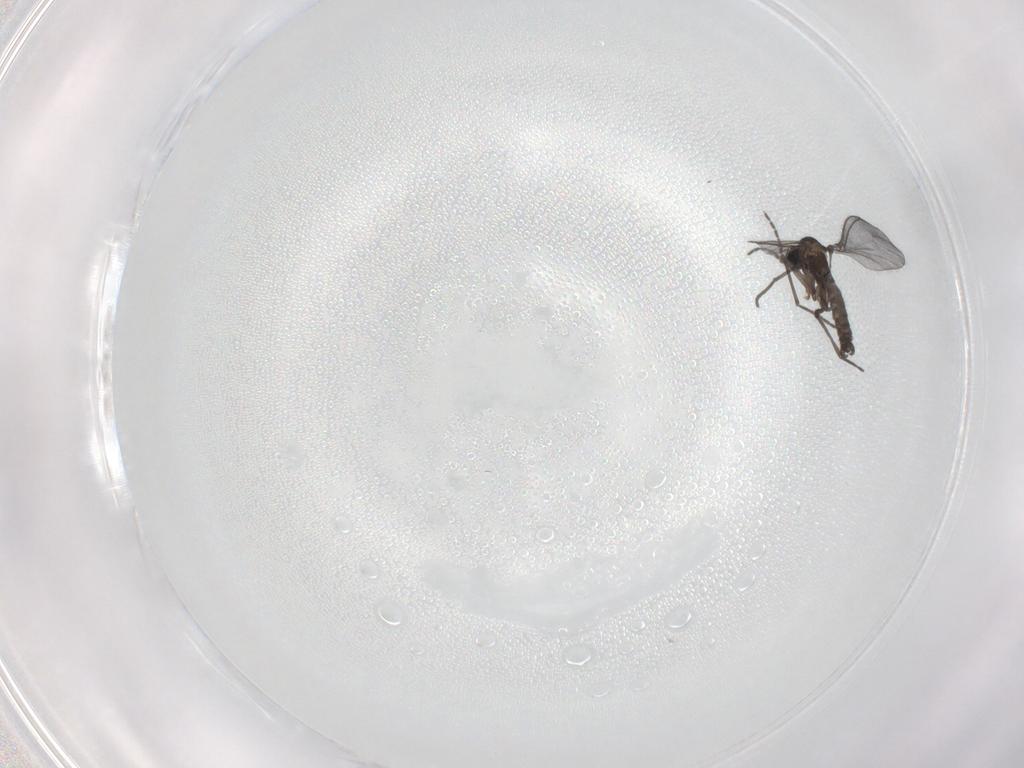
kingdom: Animalia
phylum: Arthropoda
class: Insecta
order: Diptera
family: Sciaridae
